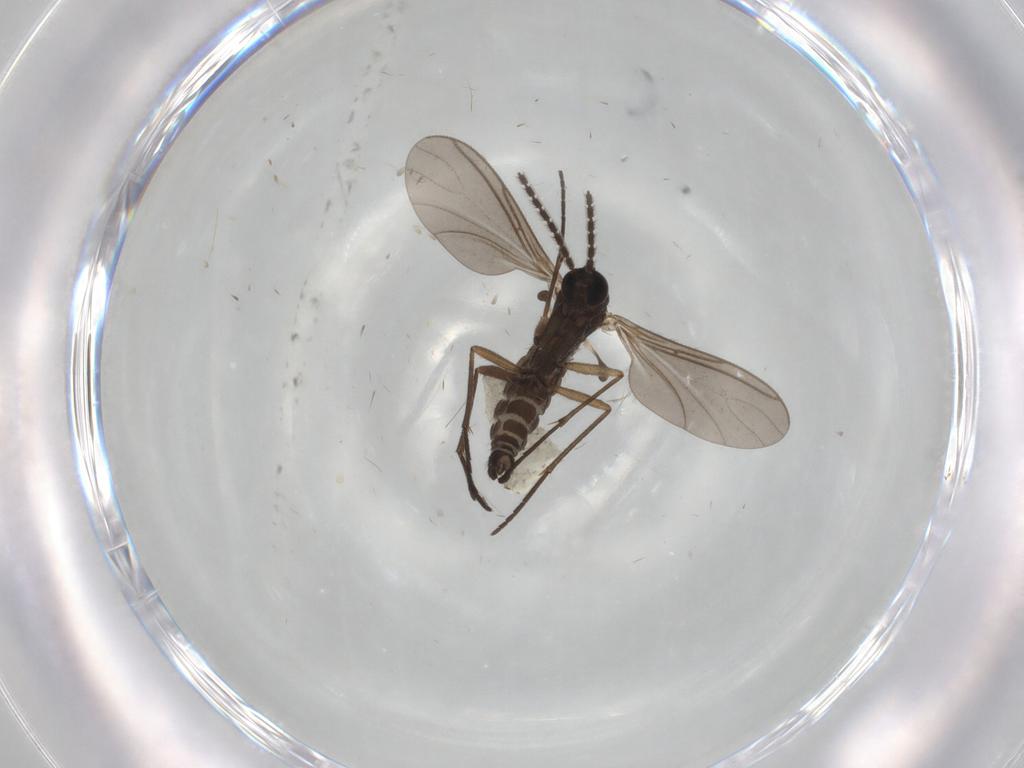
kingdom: Animalia
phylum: Arthropoda
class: Insecta
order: Diptera
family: Sciaridae
